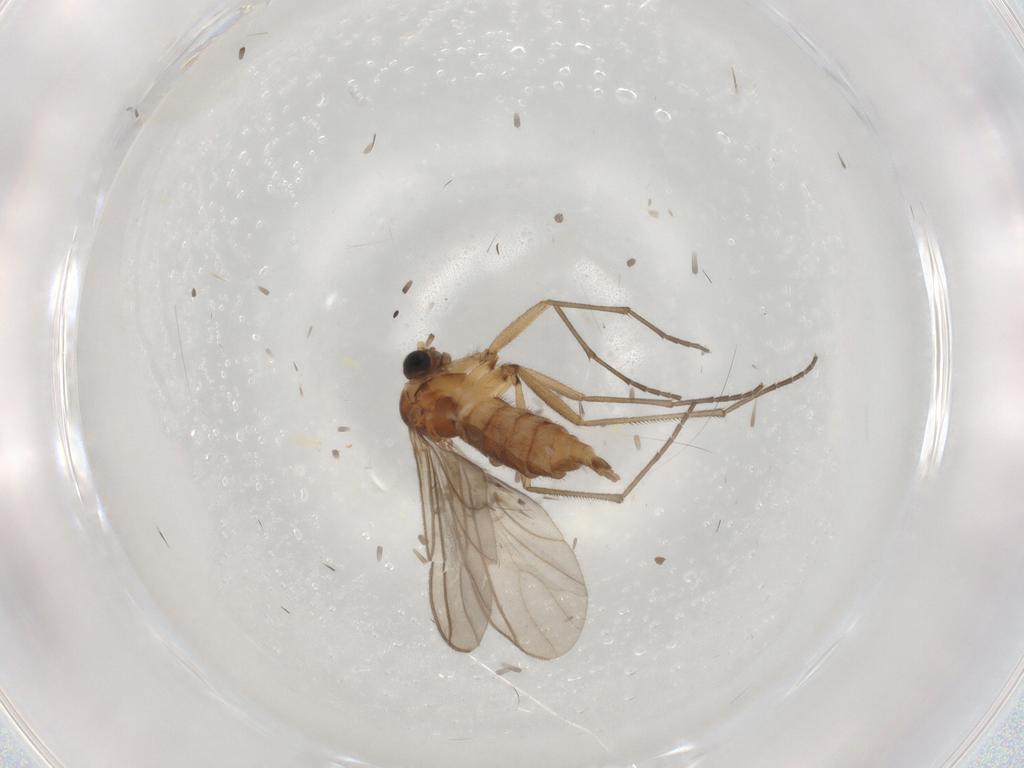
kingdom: Animalia
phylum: Arthropoda
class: Insecta
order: Diptera
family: Sciaridae
